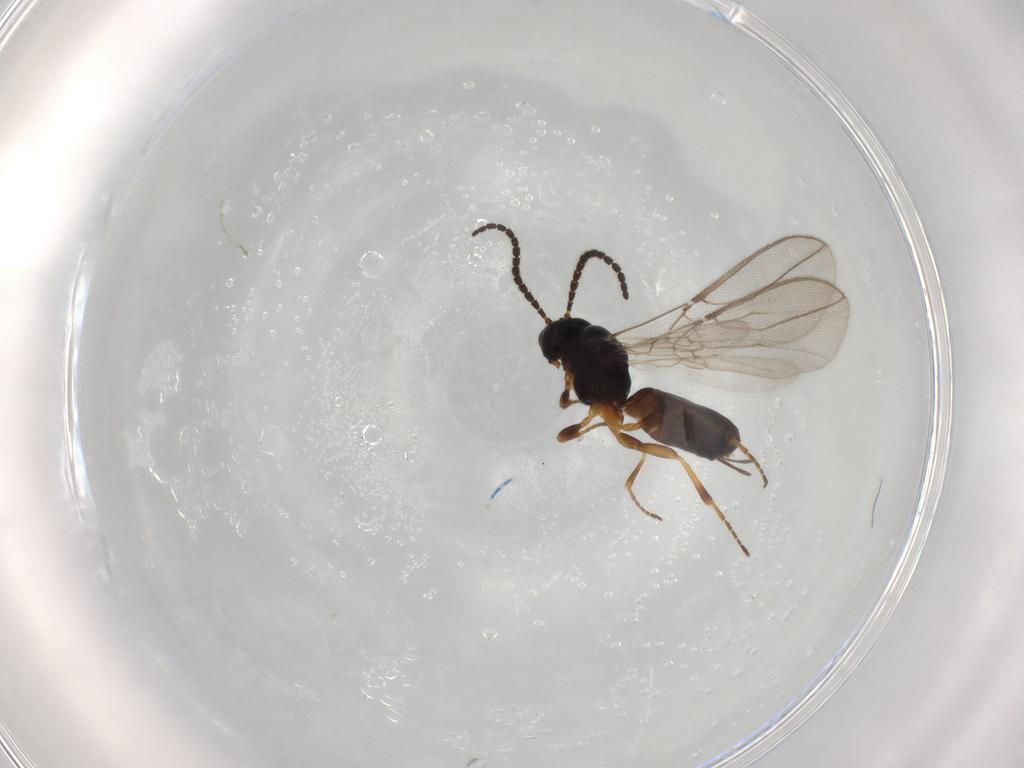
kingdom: Animalia
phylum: Arthropoda
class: Insecta
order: Hymenoptera
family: Braconidae
